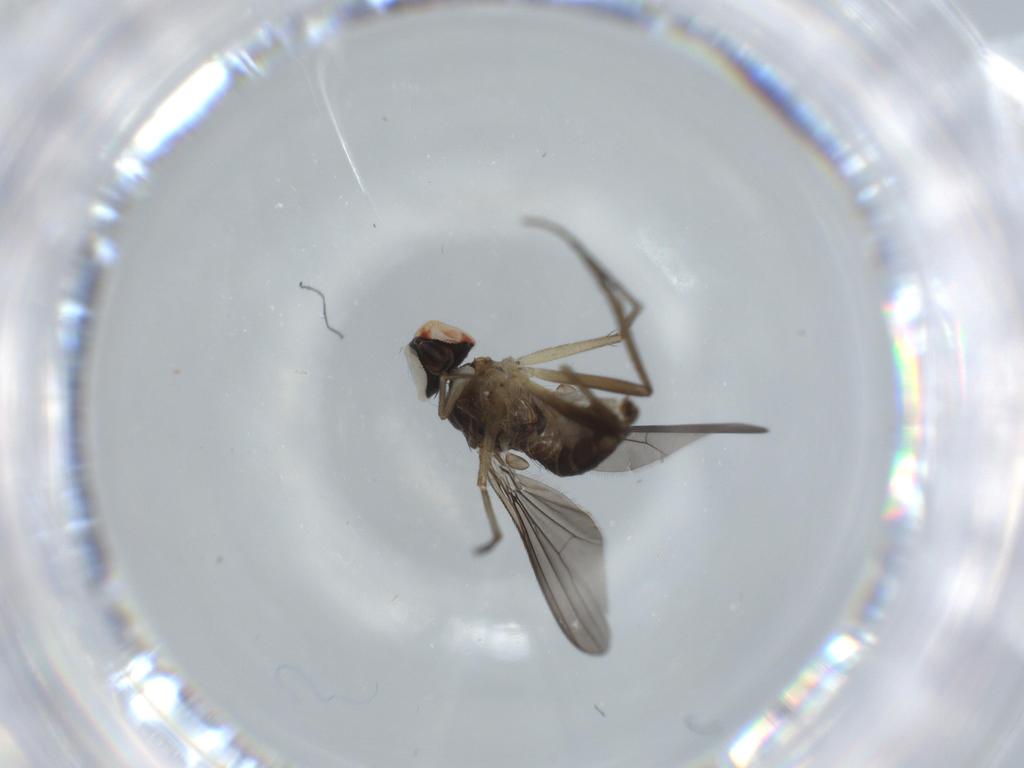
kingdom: Animalia
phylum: Arthropoda
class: Insecta
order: Diptera
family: Dolichopodidae
